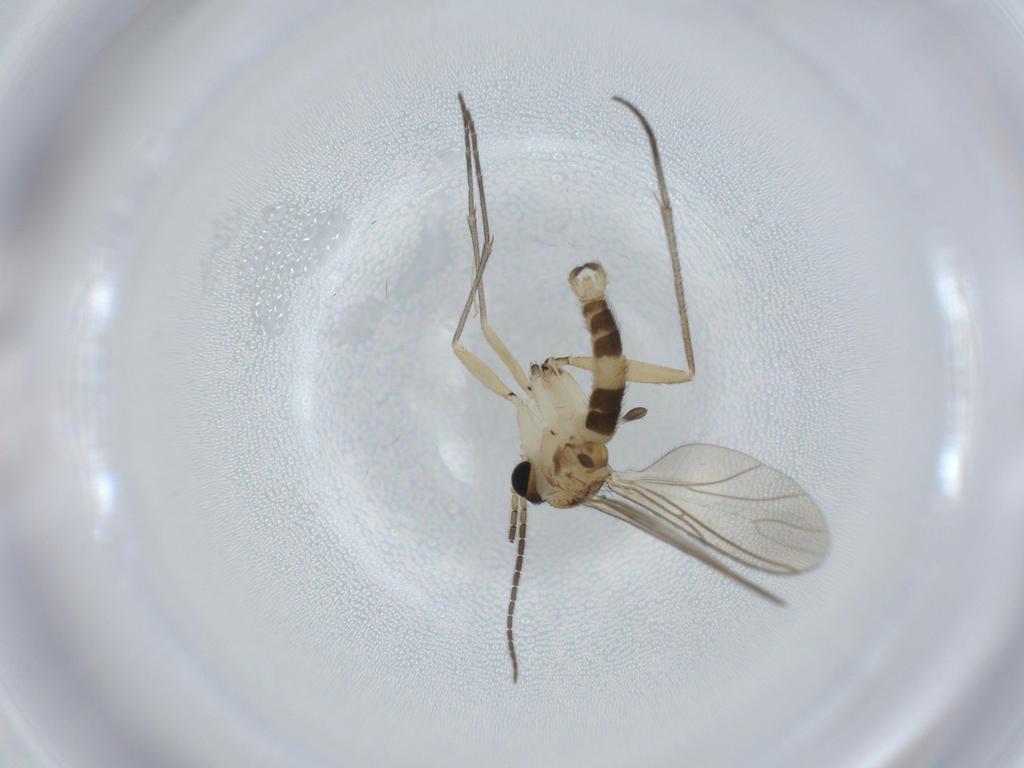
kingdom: Animalia
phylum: Arthropoda
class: Insecta
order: Diptera
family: Sciaridae
